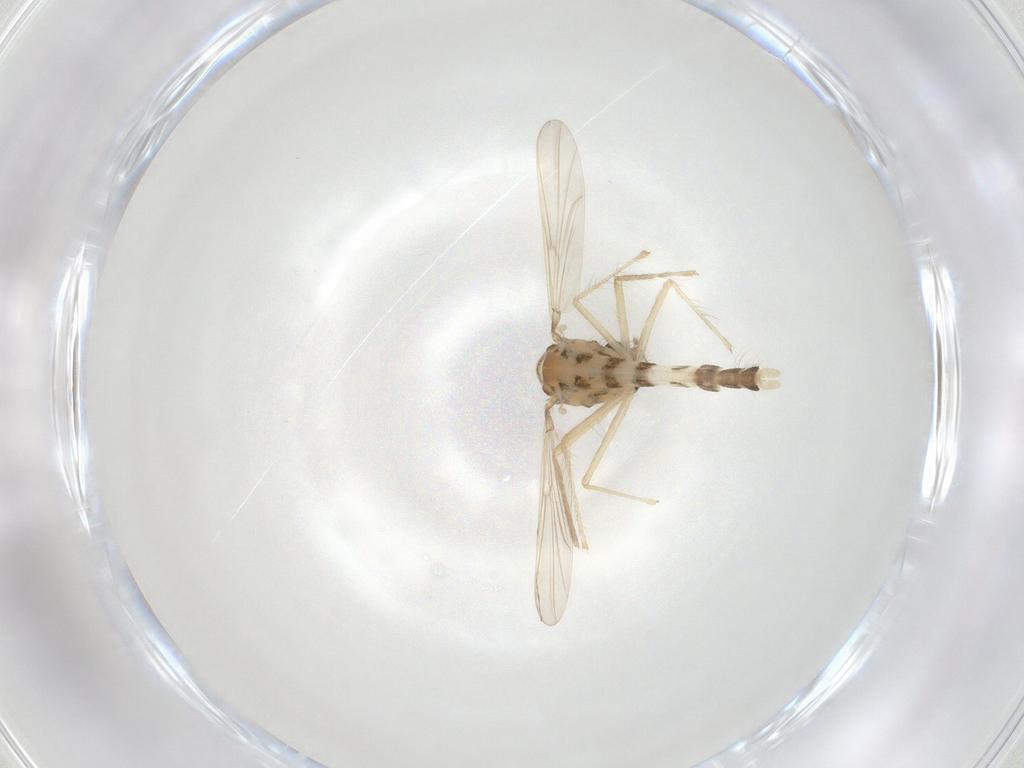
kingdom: Animalia
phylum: Arthropoda
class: Insecta
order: Diptera
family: Chironomidae
